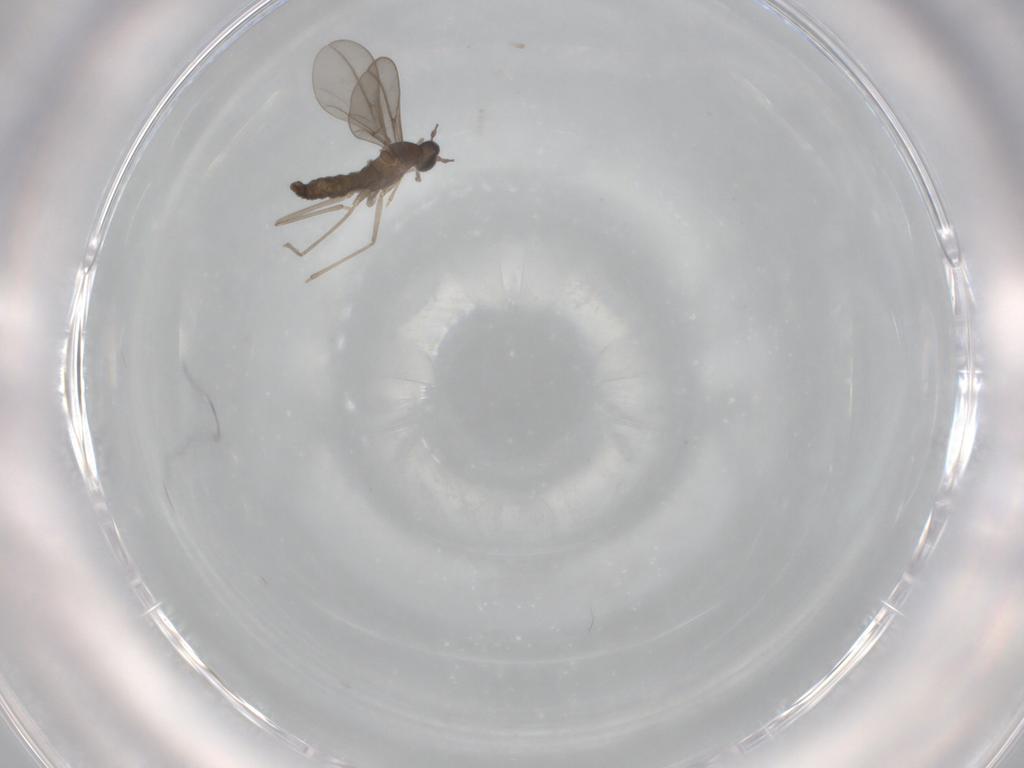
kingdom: Animalia
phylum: Arthropoda
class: Insecta
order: Diptera
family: Cecidomyiidae
